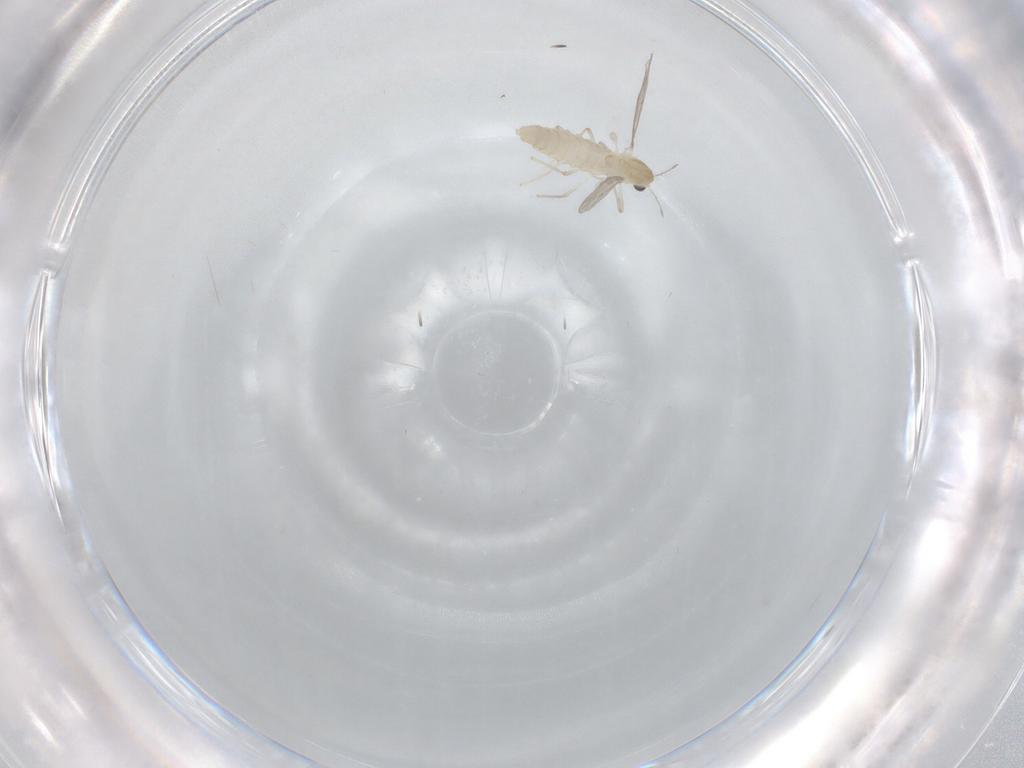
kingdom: Animalia
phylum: Arthropoda
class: Insecta
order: Diptera
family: Chironomidae
